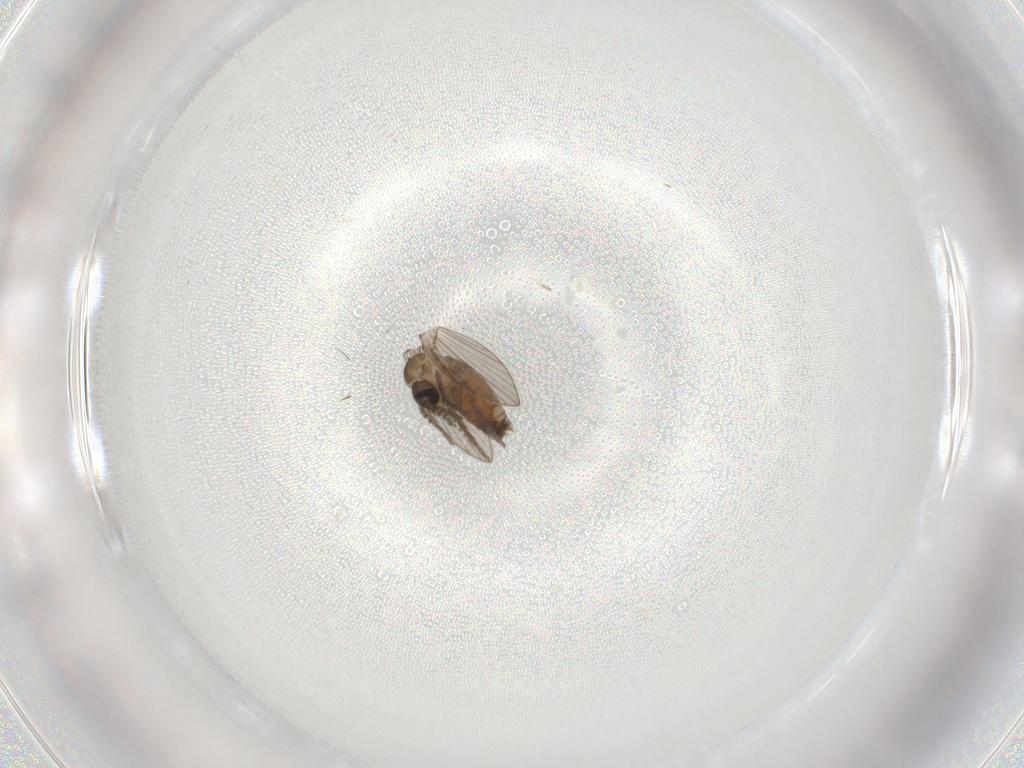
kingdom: Animalia
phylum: Arthropoda
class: Insecta
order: Diptera
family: Psychodidae
